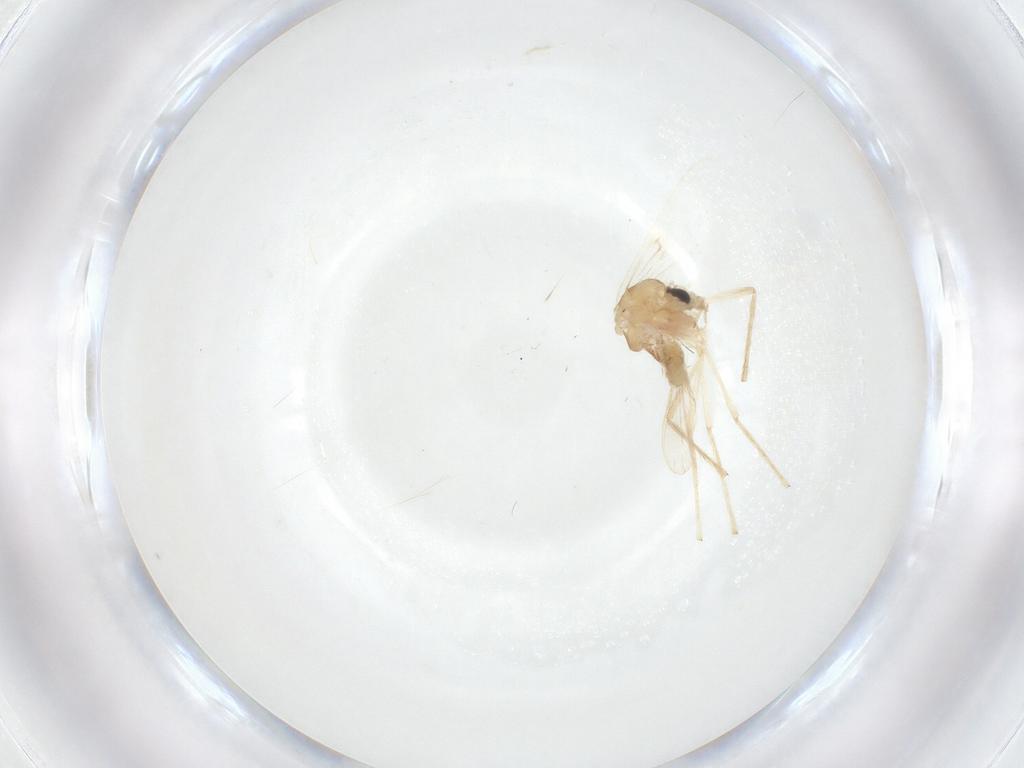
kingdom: Animalia
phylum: Arthropoda
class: Insecta
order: Diptera
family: Chironomidae
